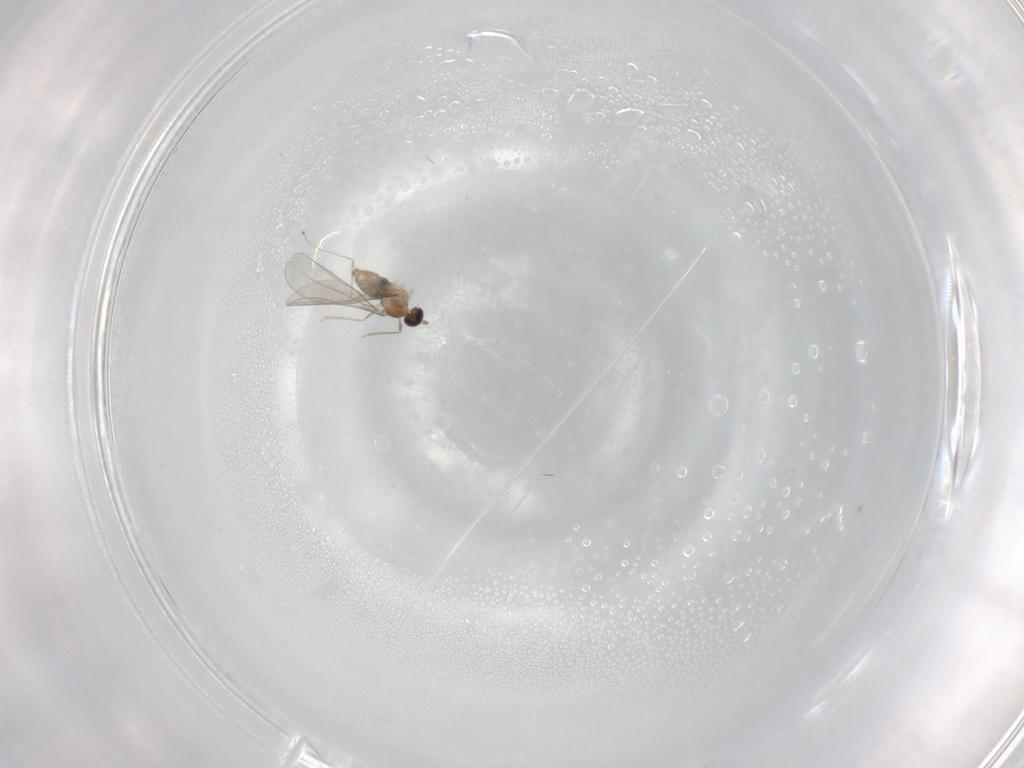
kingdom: Animalia
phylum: Arthropoda
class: Insecta
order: Diptera
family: Cecidomyiidae
